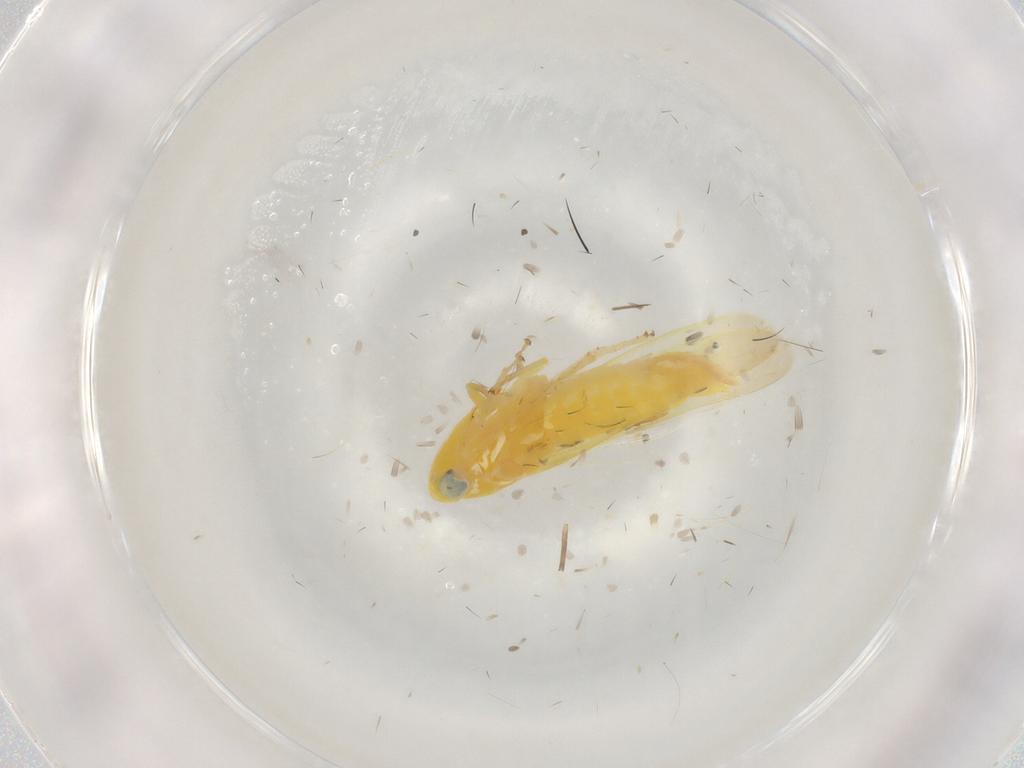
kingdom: Animalia
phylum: Arthropoda
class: Insecta
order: Hemiptera
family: Cicadellidae
